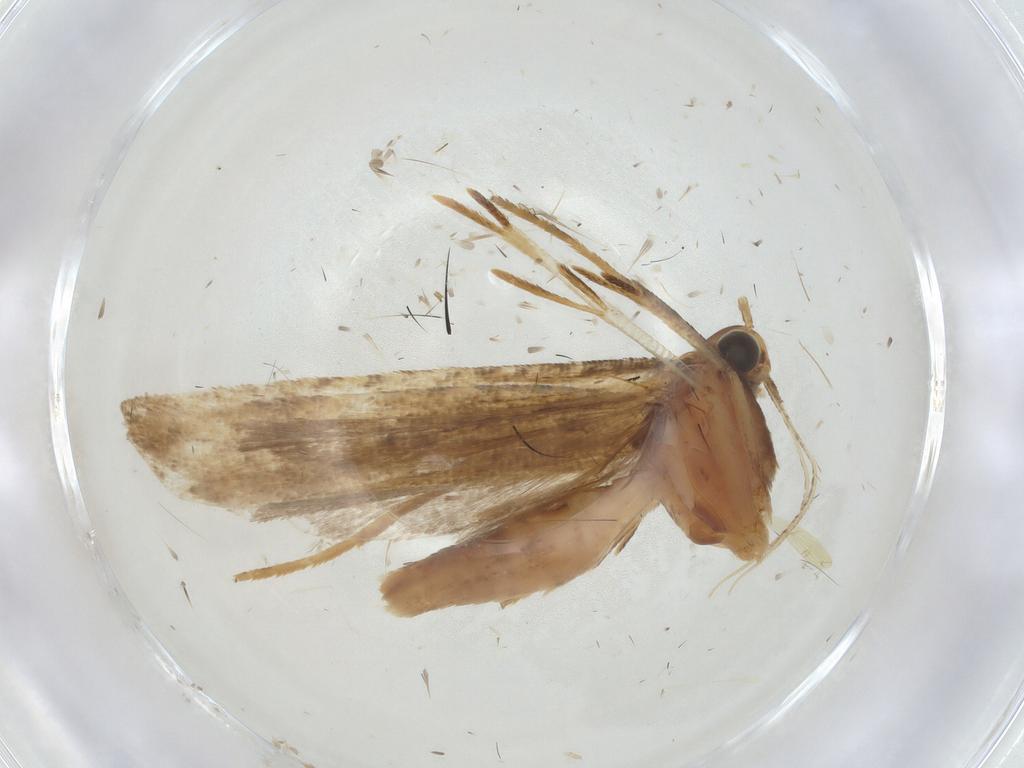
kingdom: Animalia
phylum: Arthropoda
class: Insecta
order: Lepidoptera
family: Gelechiidae
